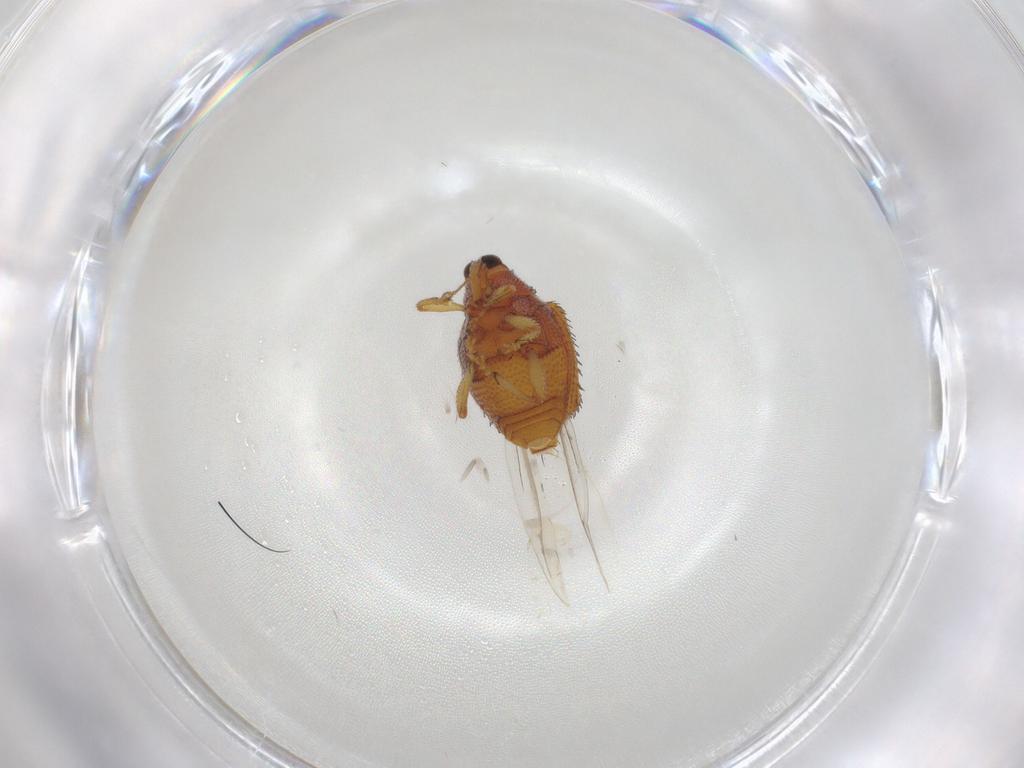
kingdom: Animalia
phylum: Arthropoda
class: Insecta
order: Coleoptera
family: Curculionidae
